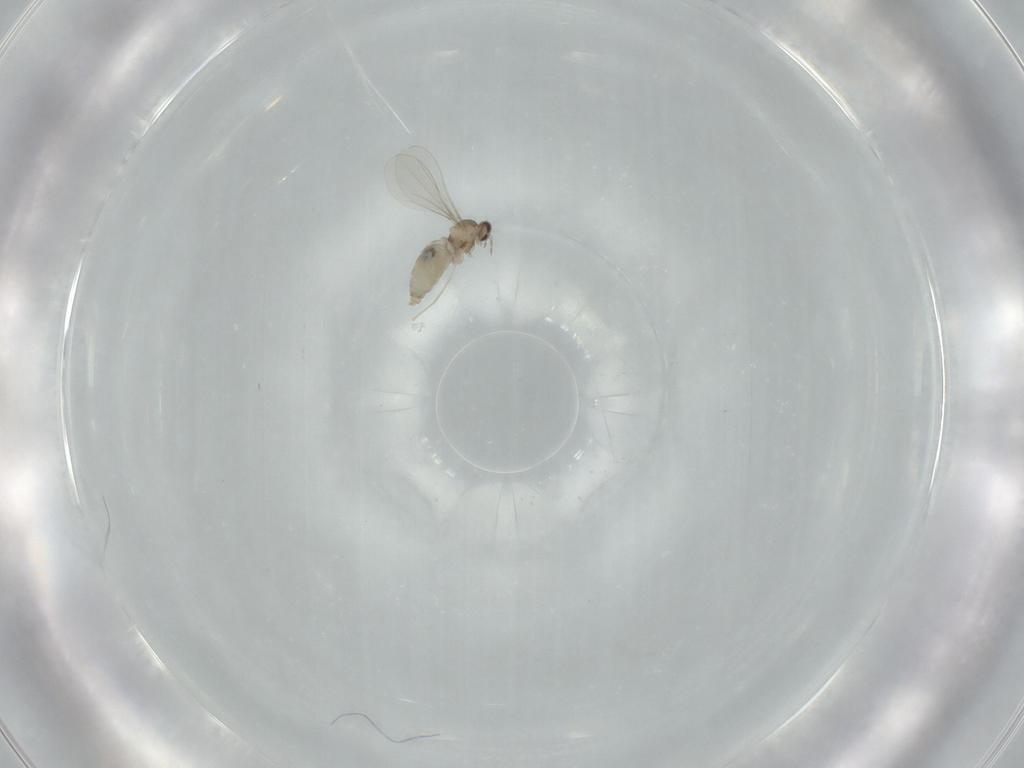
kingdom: Animalia
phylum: Arthropoda
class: Insecta
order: Diptera
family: Cecidomyiidae
